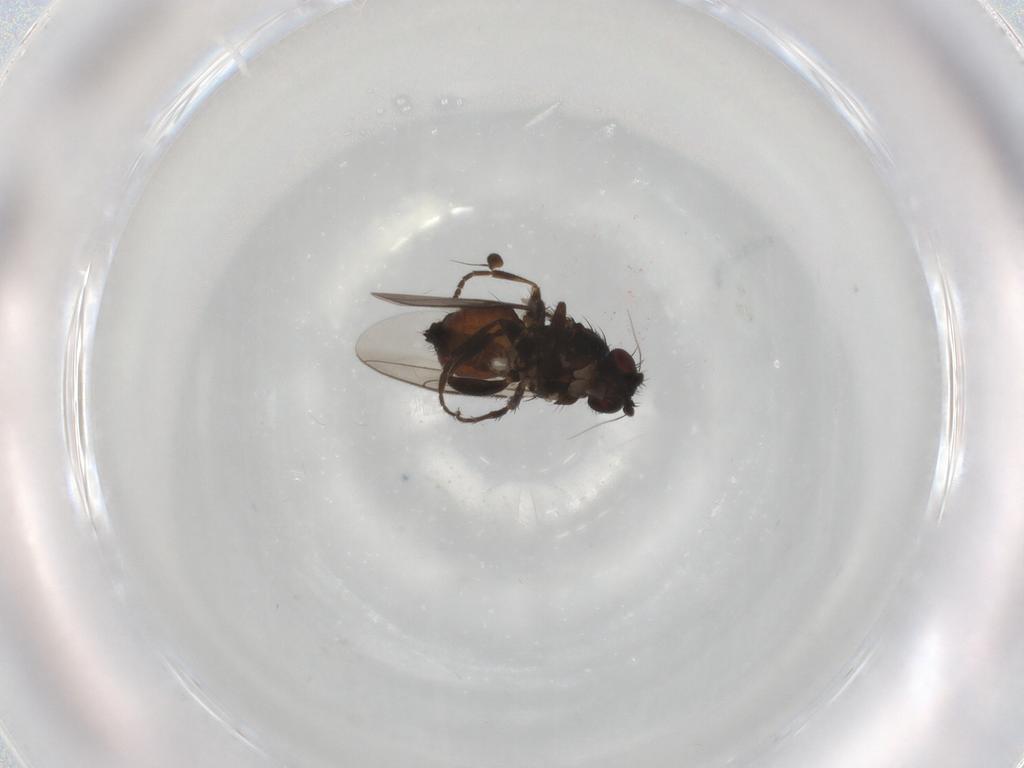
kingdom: Animalia
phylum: Arthropoda
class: Insecta
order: Diptera
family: Sphaeroceridae
